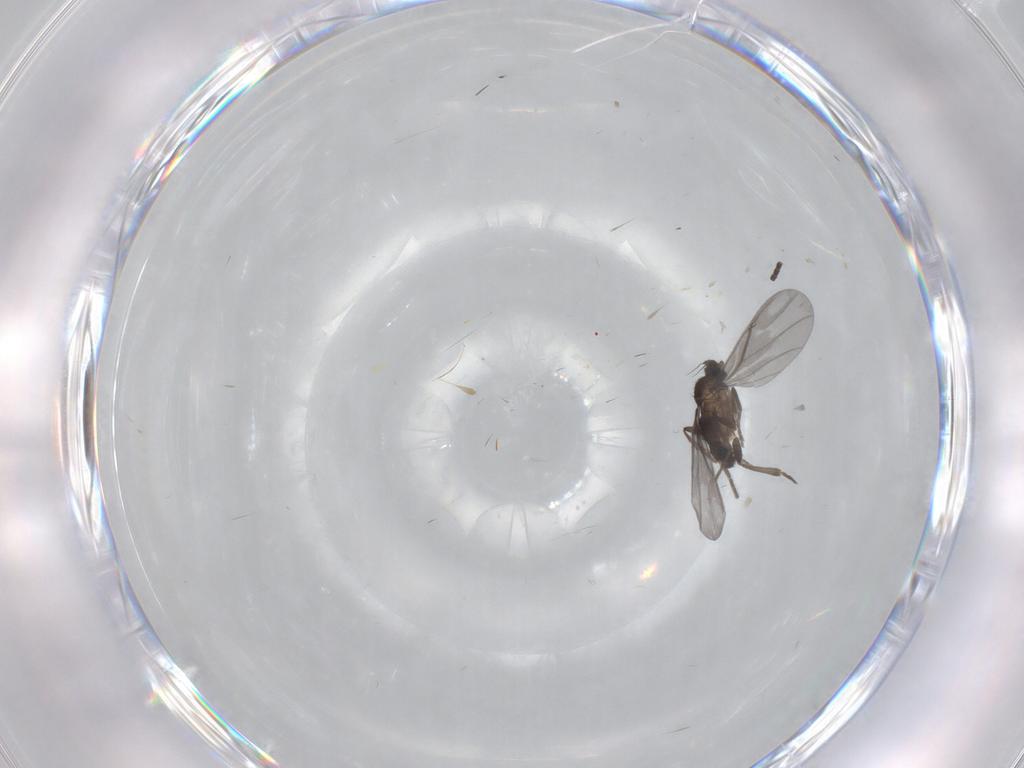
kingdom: Animalia
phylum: Arthropoda
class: Insecta
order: Diptera
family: Phoridae
